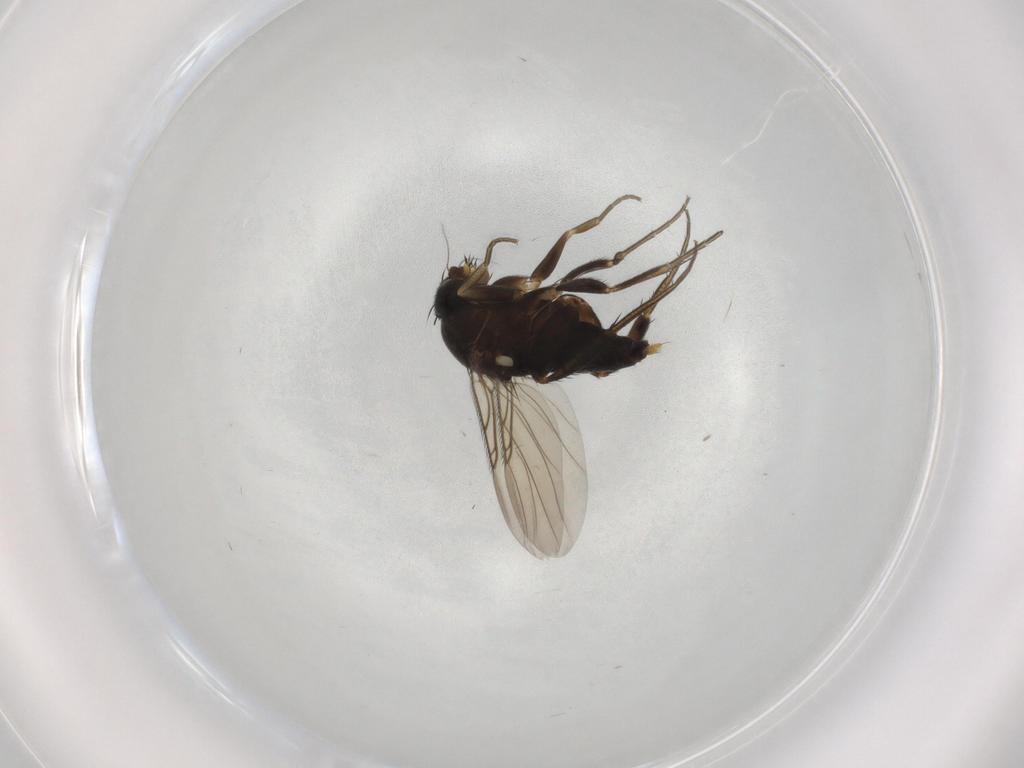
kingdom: Animalia
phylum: Arthropoda
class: Insecta
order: Diptera
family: Phoridae
